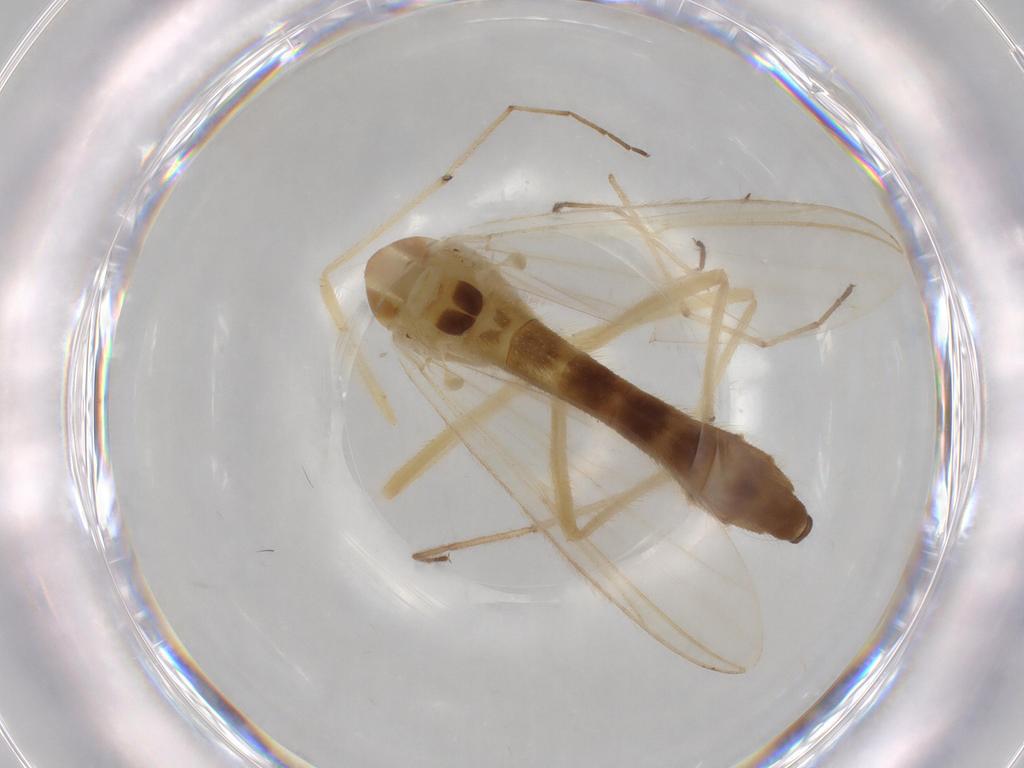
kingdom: Animalia
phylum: Arthropoda
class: Insecta
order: Diptera
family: Chironomidae
